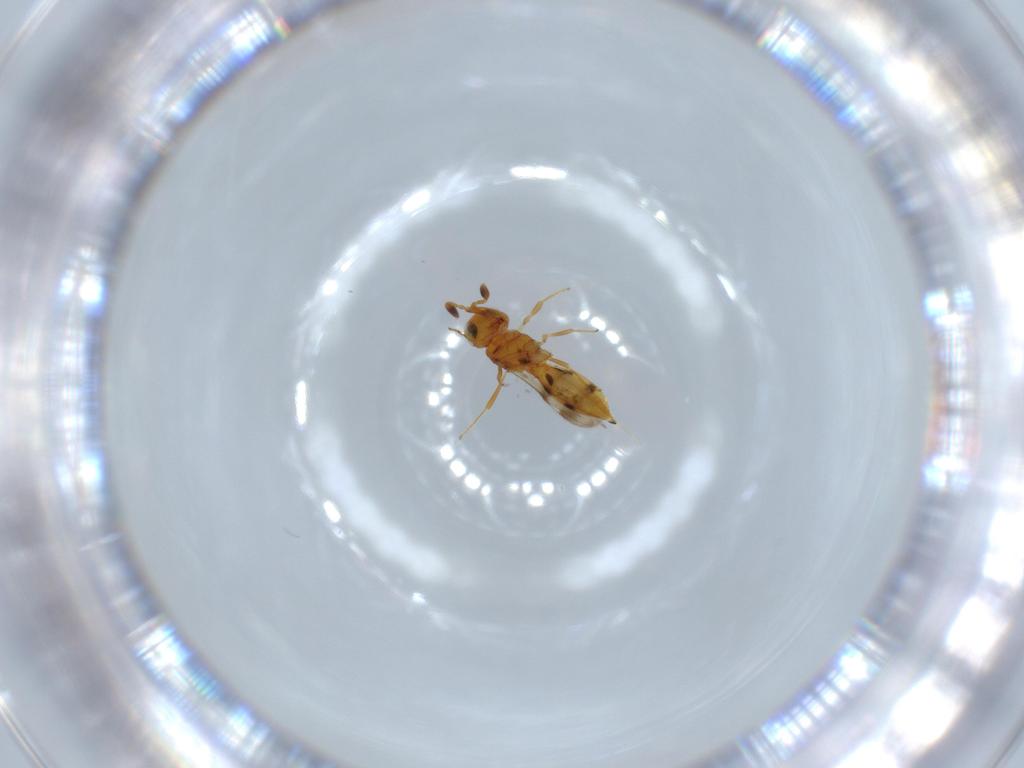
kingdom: Animalia
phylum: Arthropoda
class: Insecta
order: Hymenoptera
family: Scelionidae
